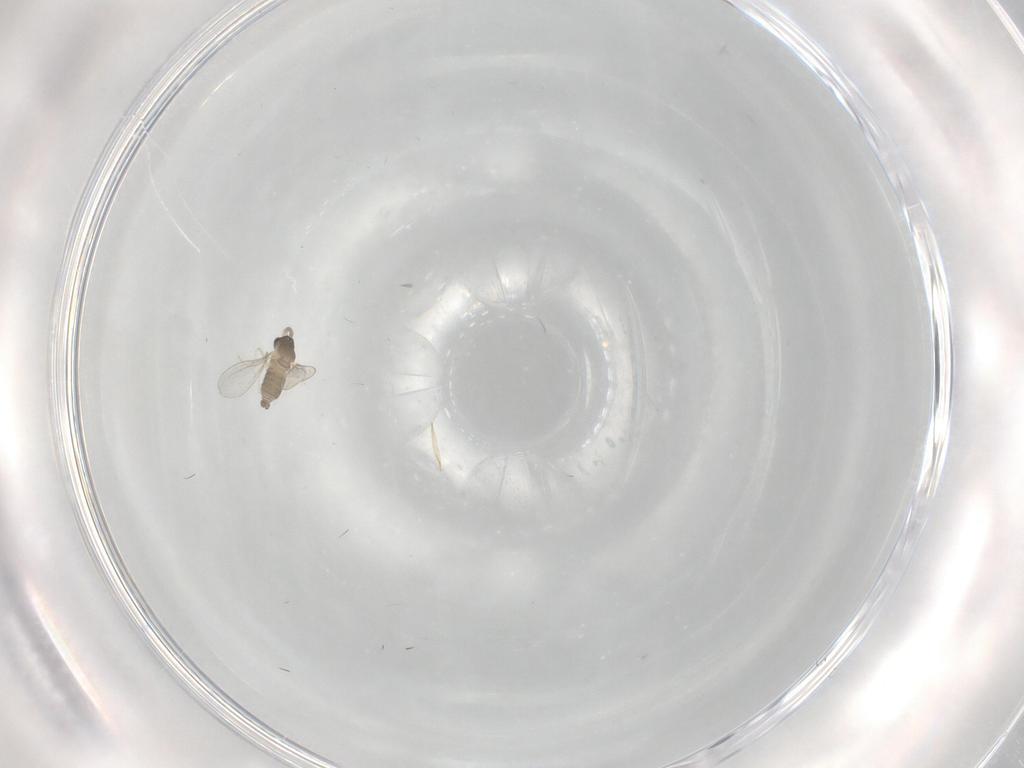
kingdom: Animalia
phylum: Arthropoda
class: Insecta
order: Diptera
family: Cecidomyiidae
